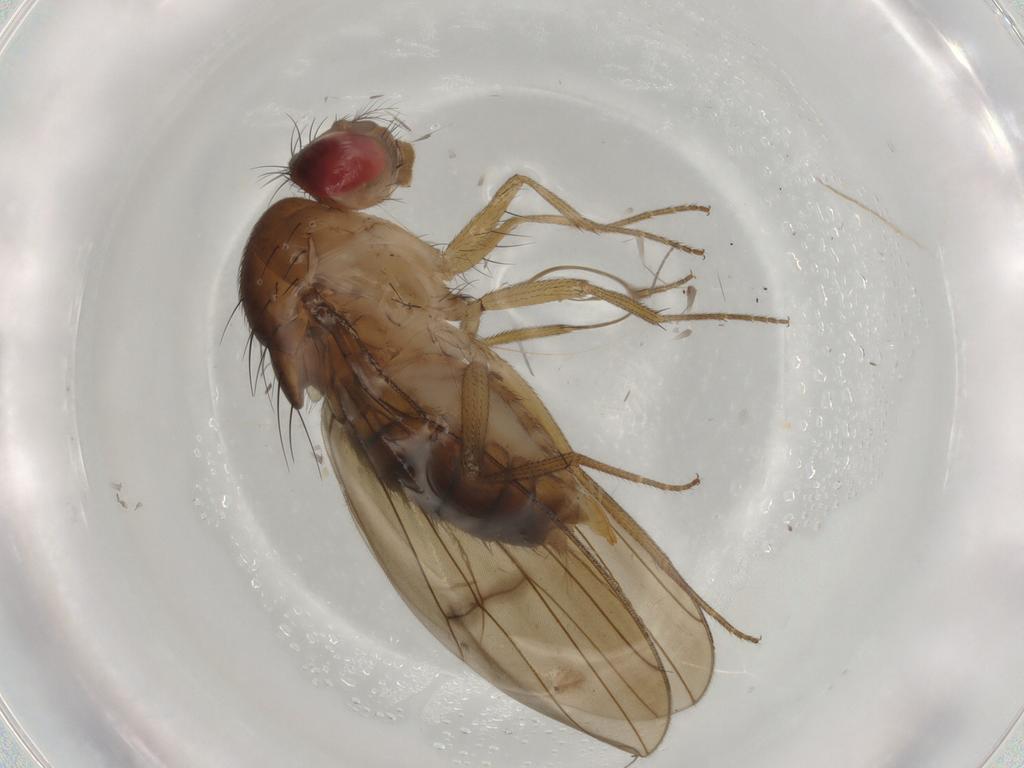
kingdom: Animalia
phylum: Arthropoda
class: Insecta
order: Diptera
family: Drosophilidae
